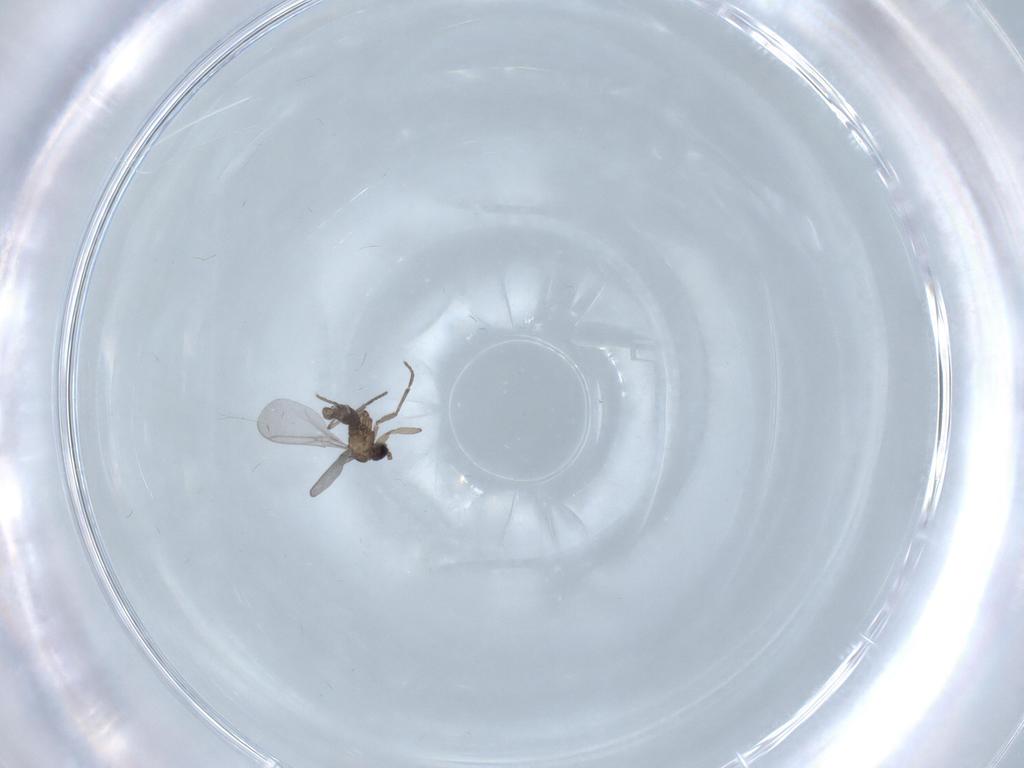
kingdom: Animalia
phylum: Arthropoda
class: Insecta
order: Diptera
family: Sciaridae
